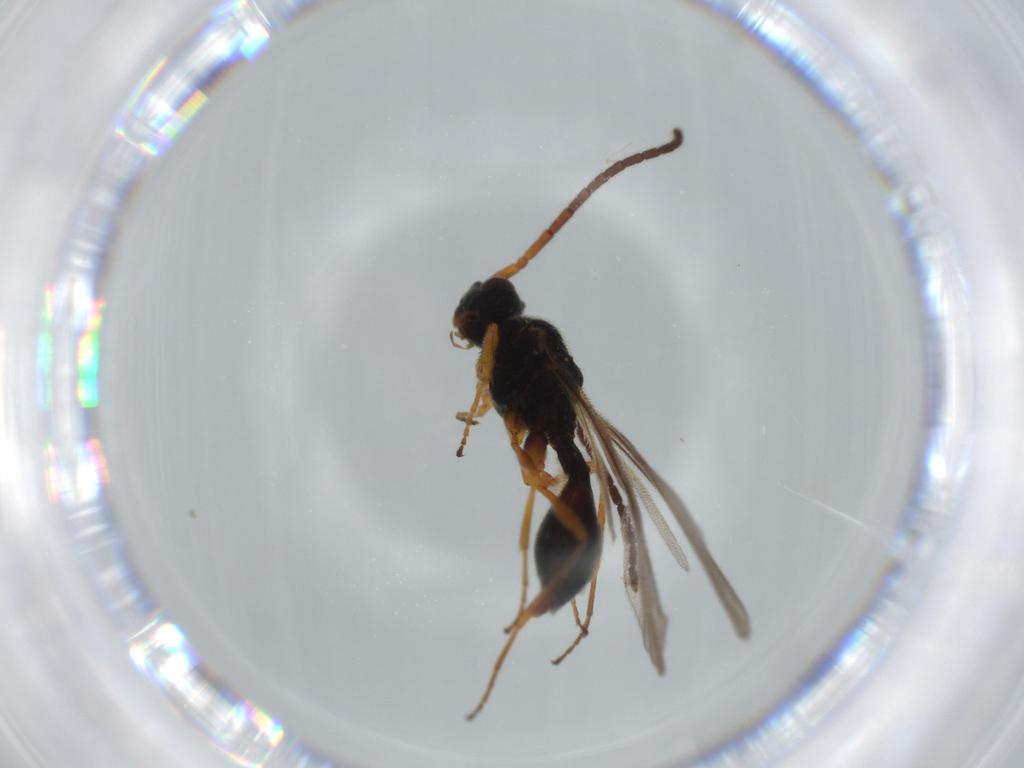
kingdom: Animalia
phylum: Arthropoda
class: Insecta
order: Hymenoptera
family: Diapriidae
